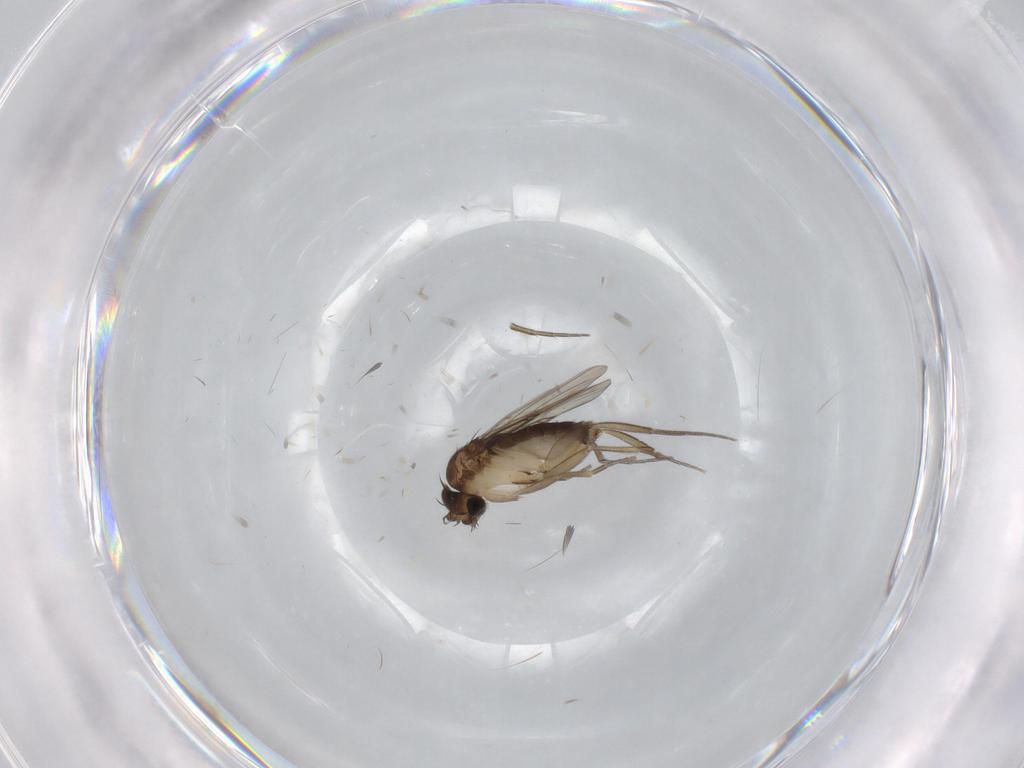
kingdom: Animalia
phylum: Arthropoda
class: Insecta
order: Diptera
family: Phoridae
